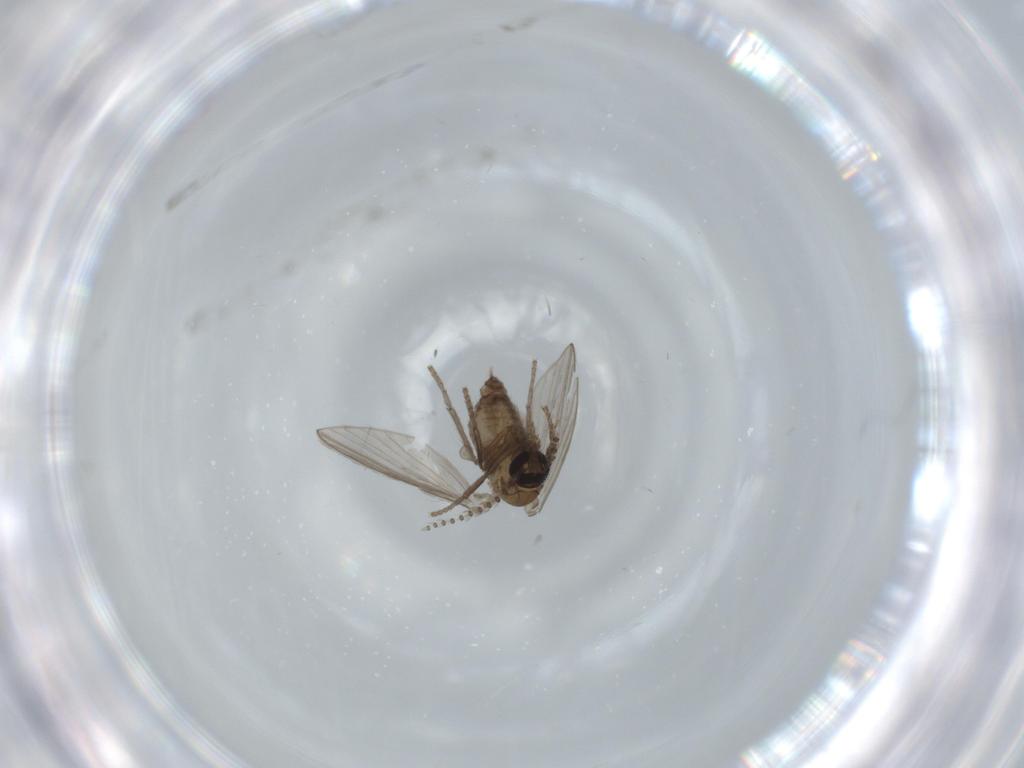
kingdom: Animalia
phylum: Arthropoda
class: Insecta
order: Diptera
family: Psychodidae
